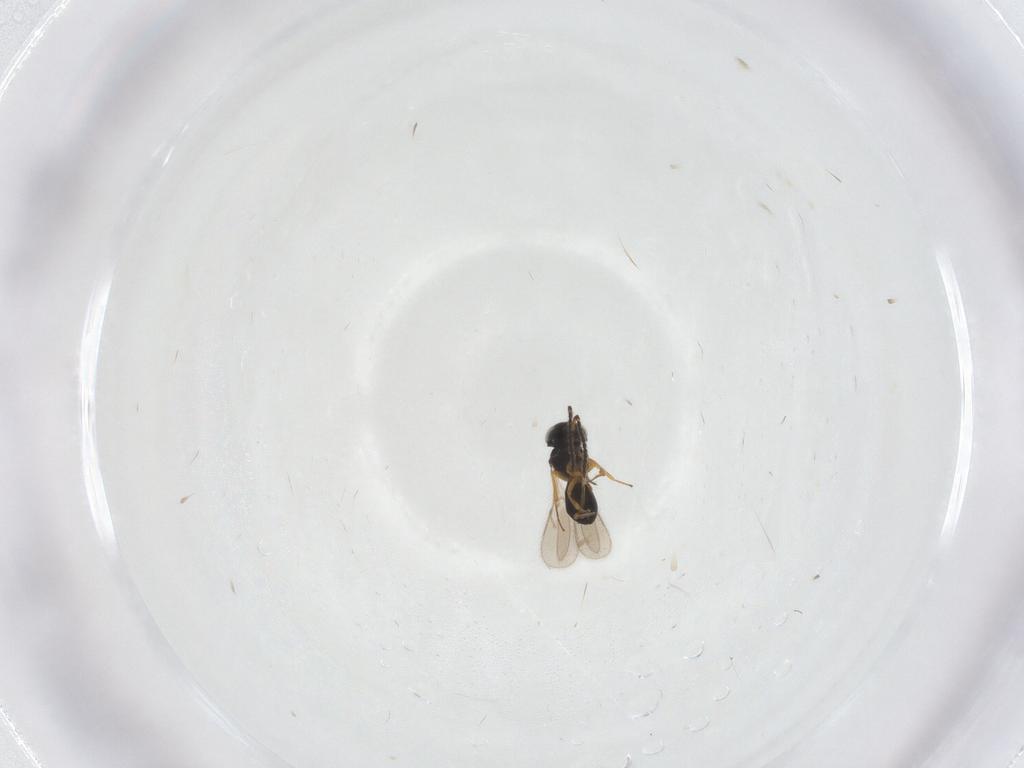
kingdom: Animalia
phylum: Arthropoda
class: Insecta
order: Hymenoptera
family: Scelionidae
